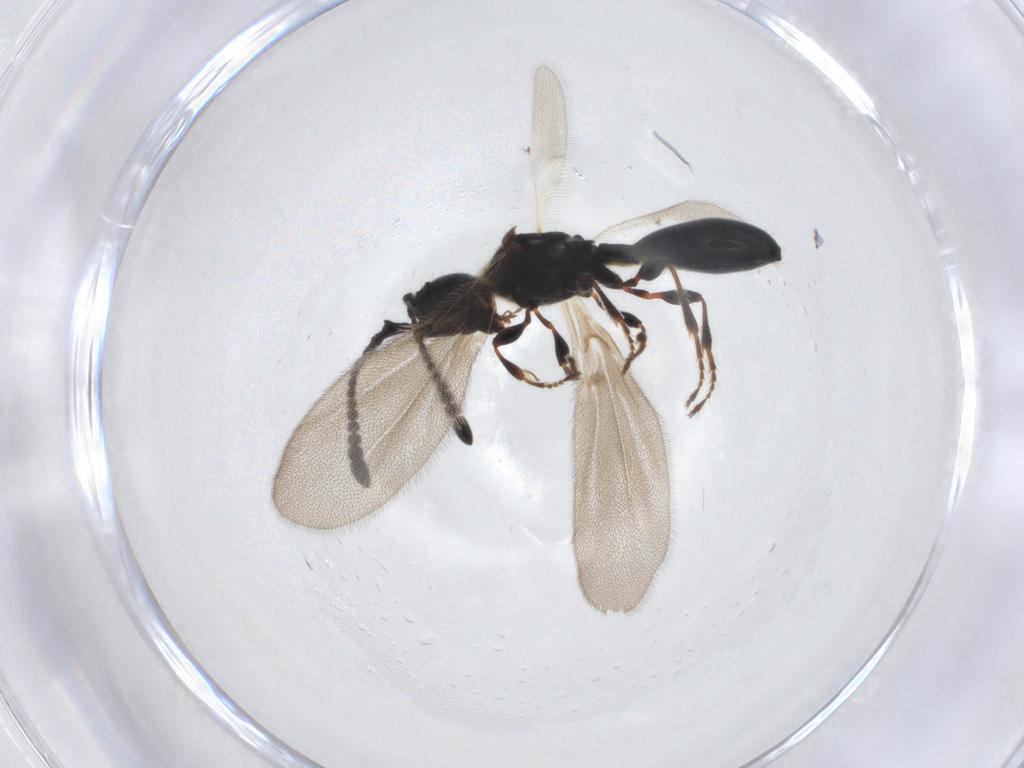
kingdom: Animalia
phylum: Arthropoda
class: Insecta
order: Hymenoptera
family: Diapriidae
